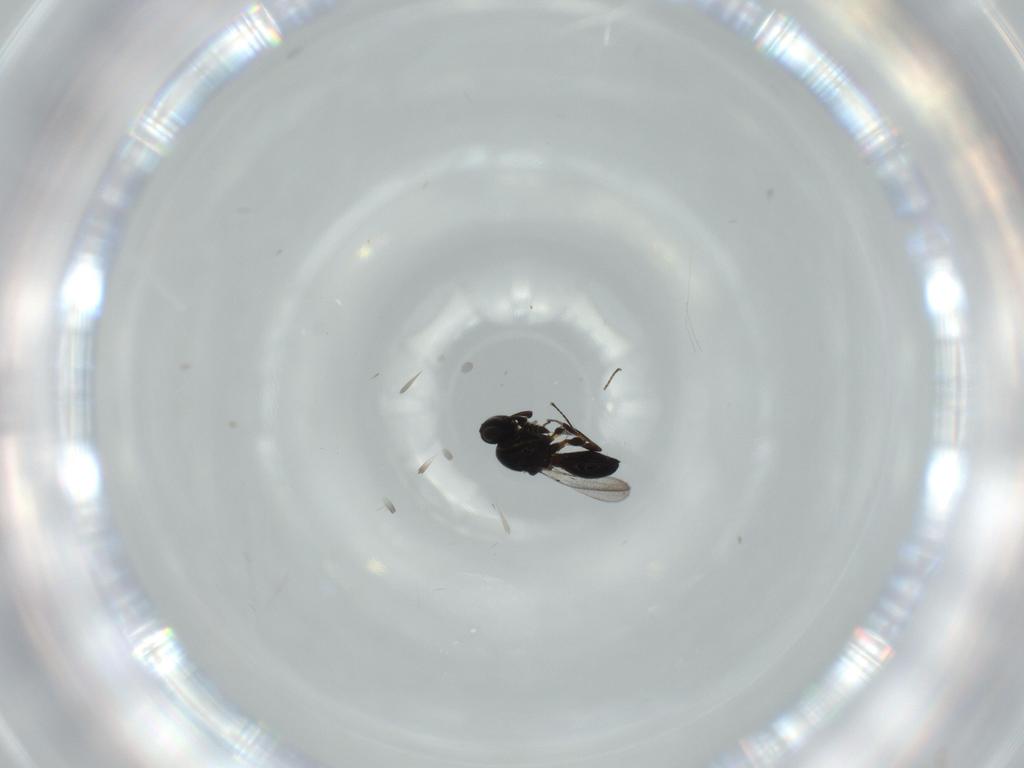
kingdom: Animalia
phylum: Arthropoda
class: Insecta
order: Hymenoptera
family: Platygastridae
